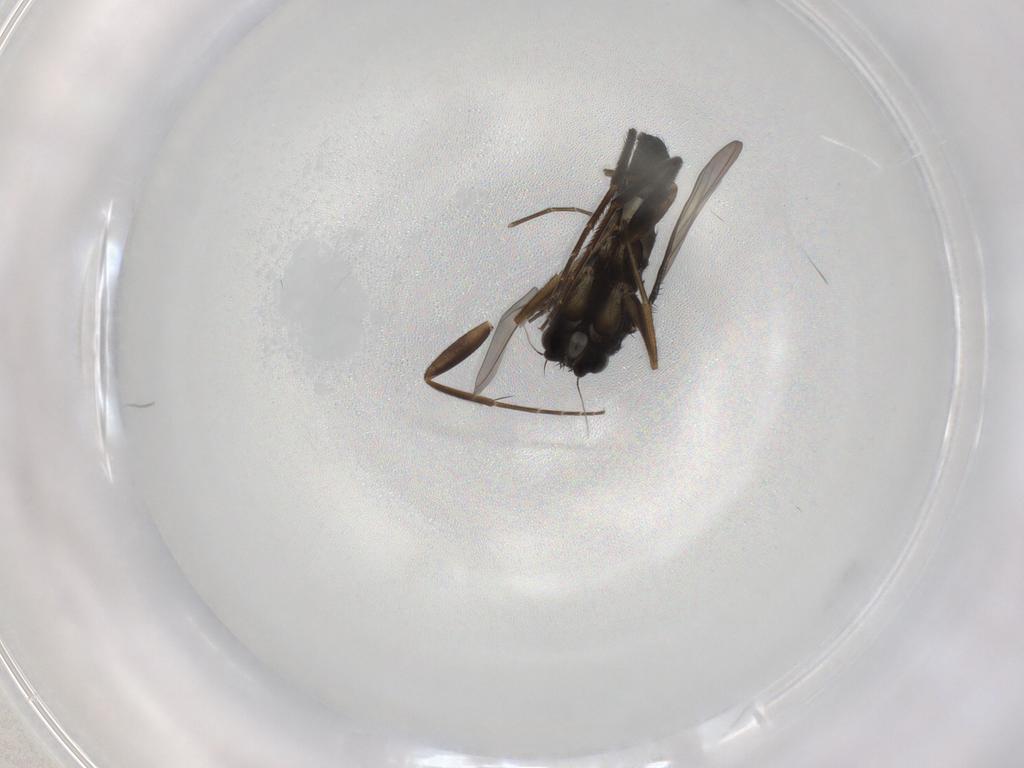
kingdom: Animalia
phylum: Arthropoda
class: Insecta
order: Diptera
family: Phoridae
